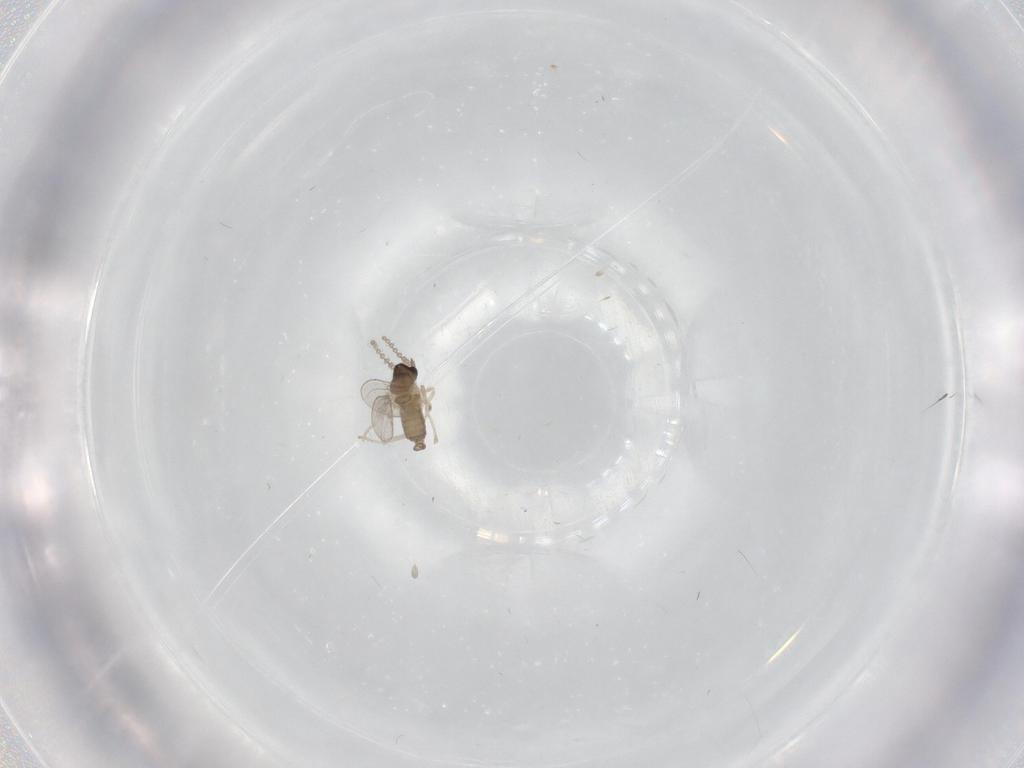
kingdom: Animalia
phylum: Arthropoda
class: Insecta
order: Diptera
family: Cecidomyiidae
